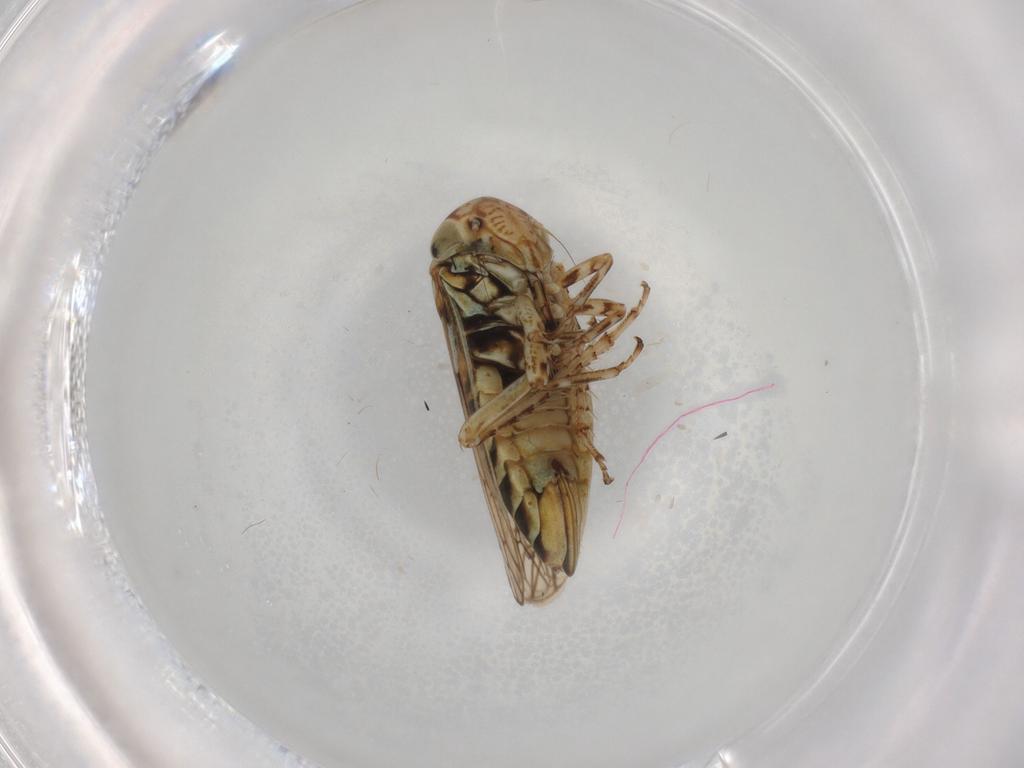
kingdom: Animalia
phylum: Arthropoda
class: Insecta
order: Hemiptera
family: Cicadellidae
